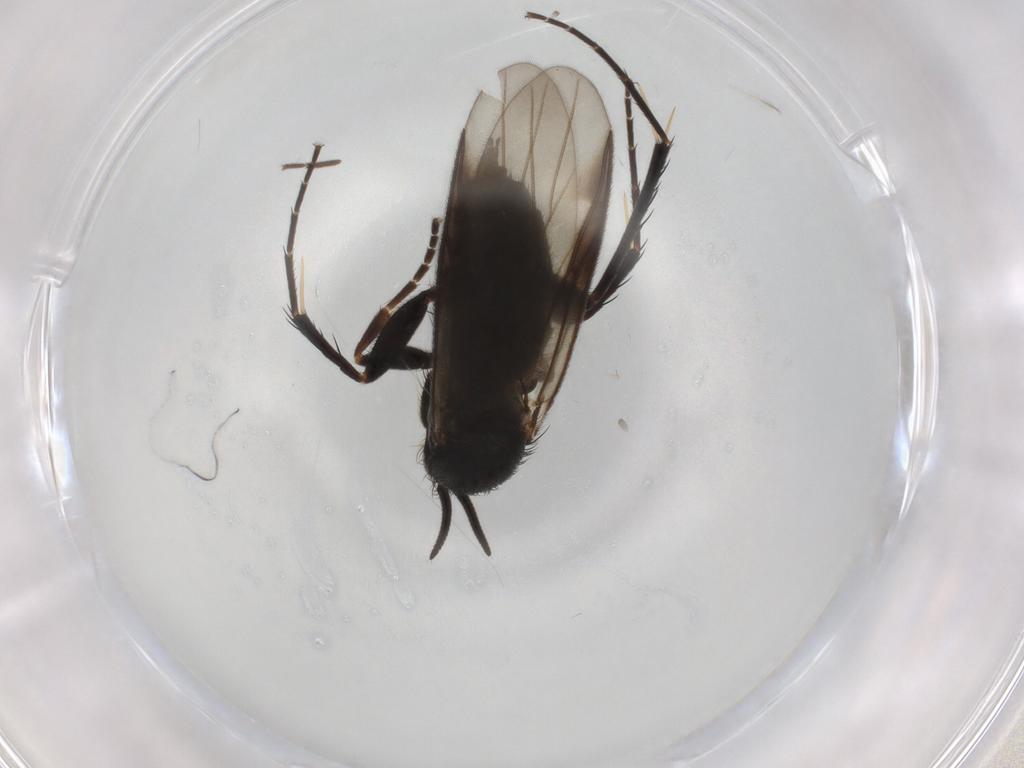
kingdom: Animalia
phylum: Arthropoda
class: Insecta
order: Diptera
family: Mycetophilidae
